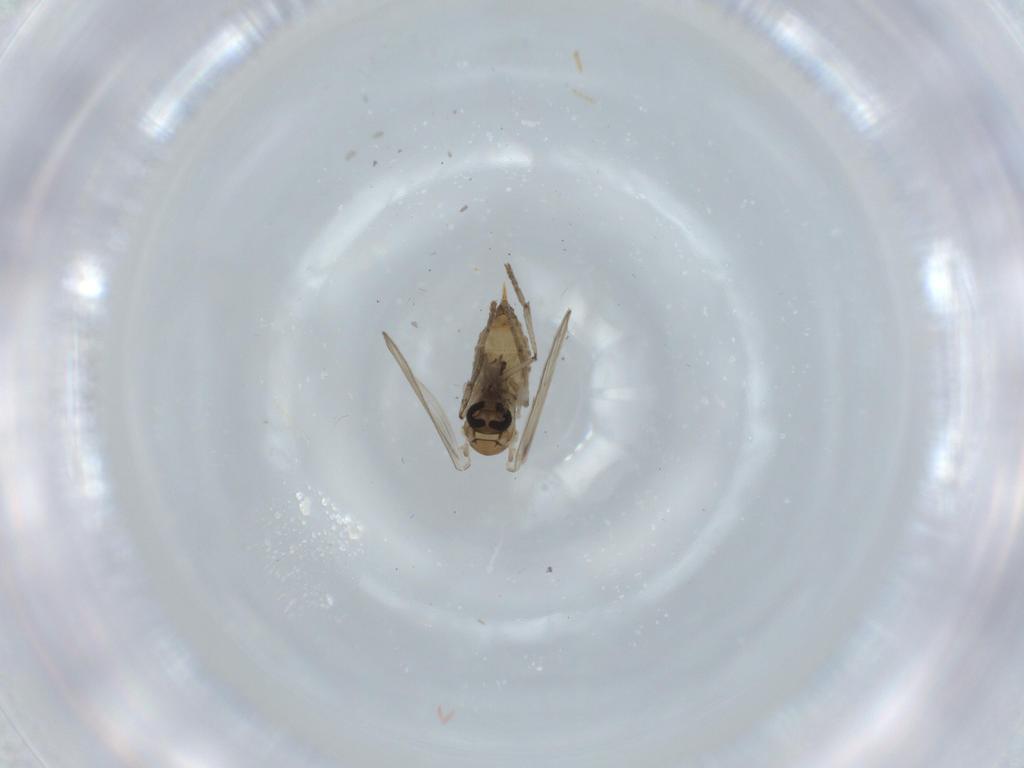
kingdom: Animalia
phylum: Arthropoda
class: Insecta
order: Diptera
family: Psychodidae
